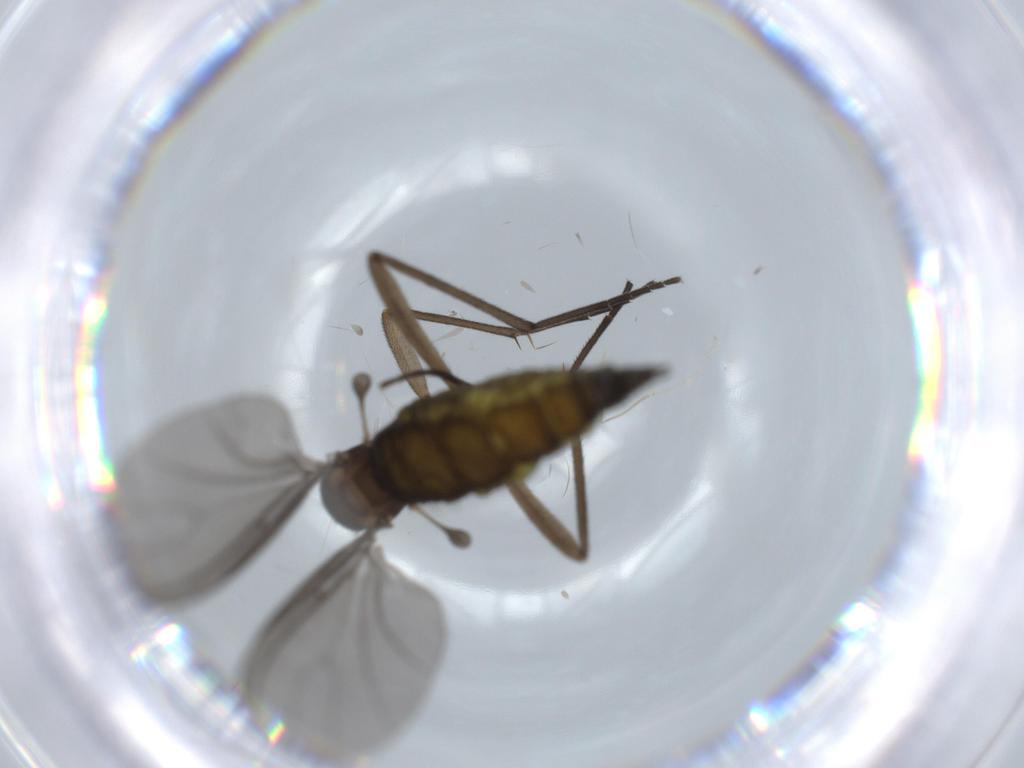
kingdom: Animalia
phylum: Arthropoda
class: Insecta
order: Diptera
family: Sciaridae
